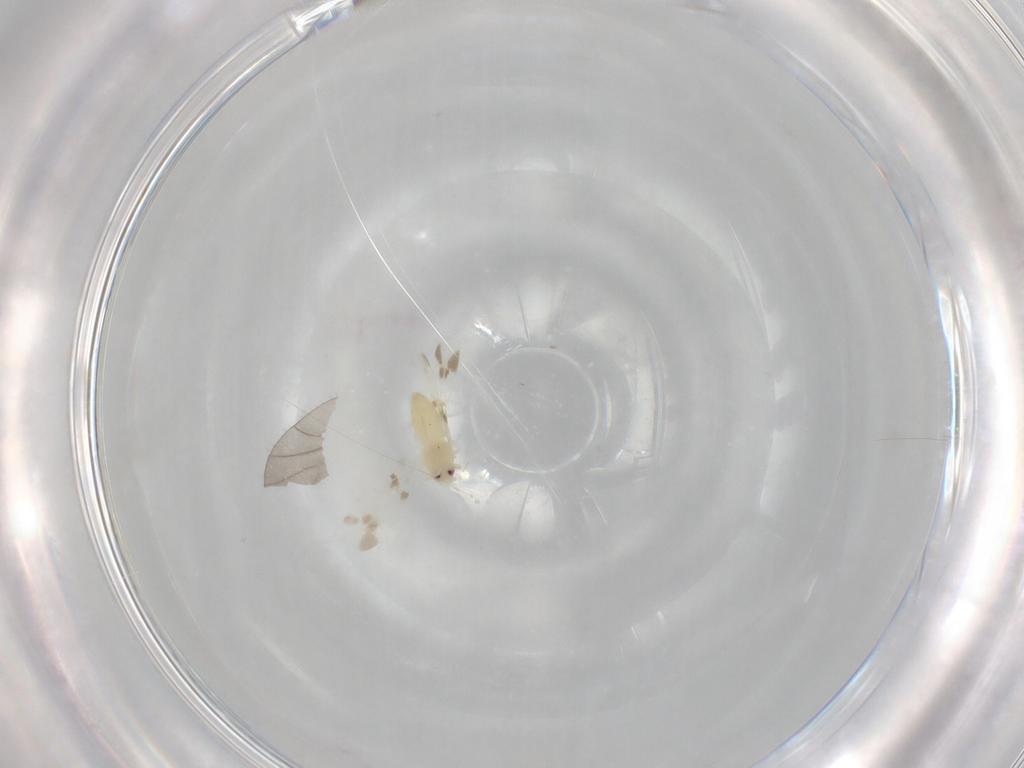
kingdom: Animalia
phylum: Arthropoda
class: Insecta
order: Hemiptera
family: Aleyrodidae
